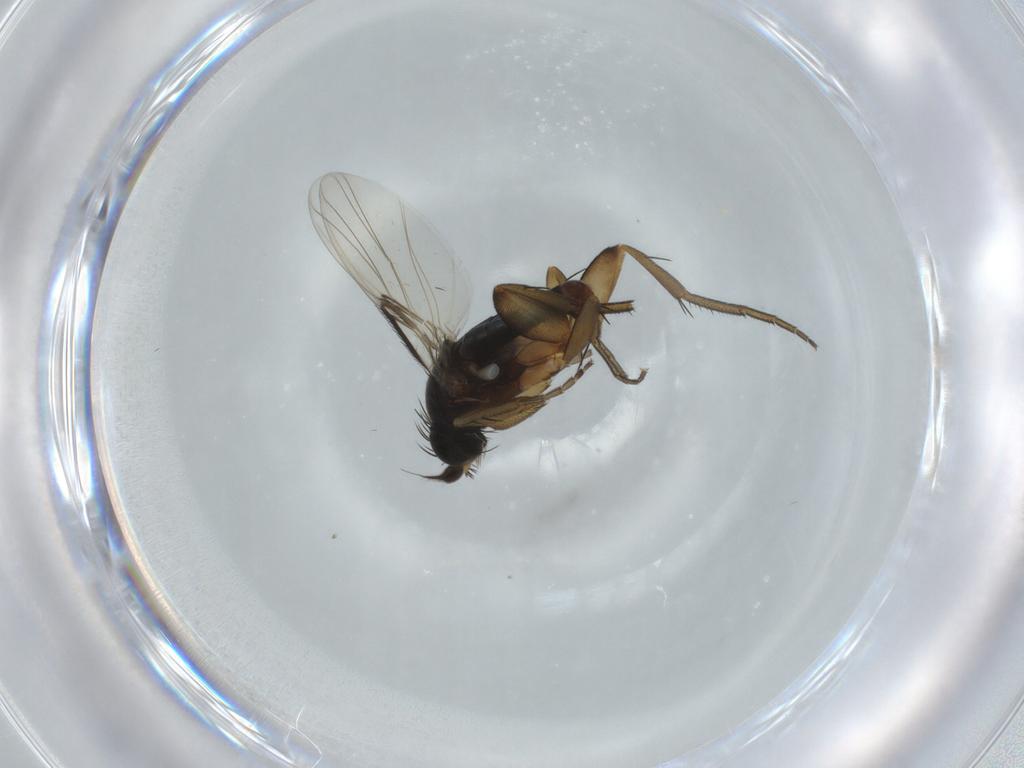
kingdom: Animalia
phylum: Arthropoda
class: Insecta
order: Diptera
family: Phoridae
